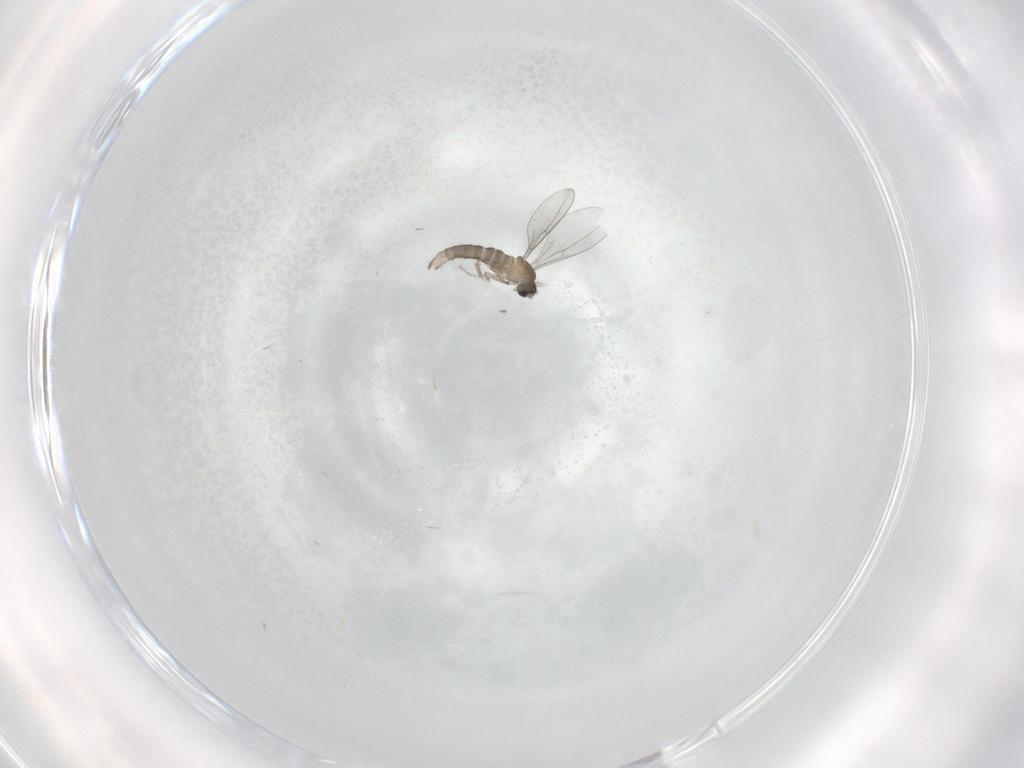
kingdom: Animalia
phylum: Arthropoda
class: Insecta
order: Diptera
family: Cecidomyiidae
